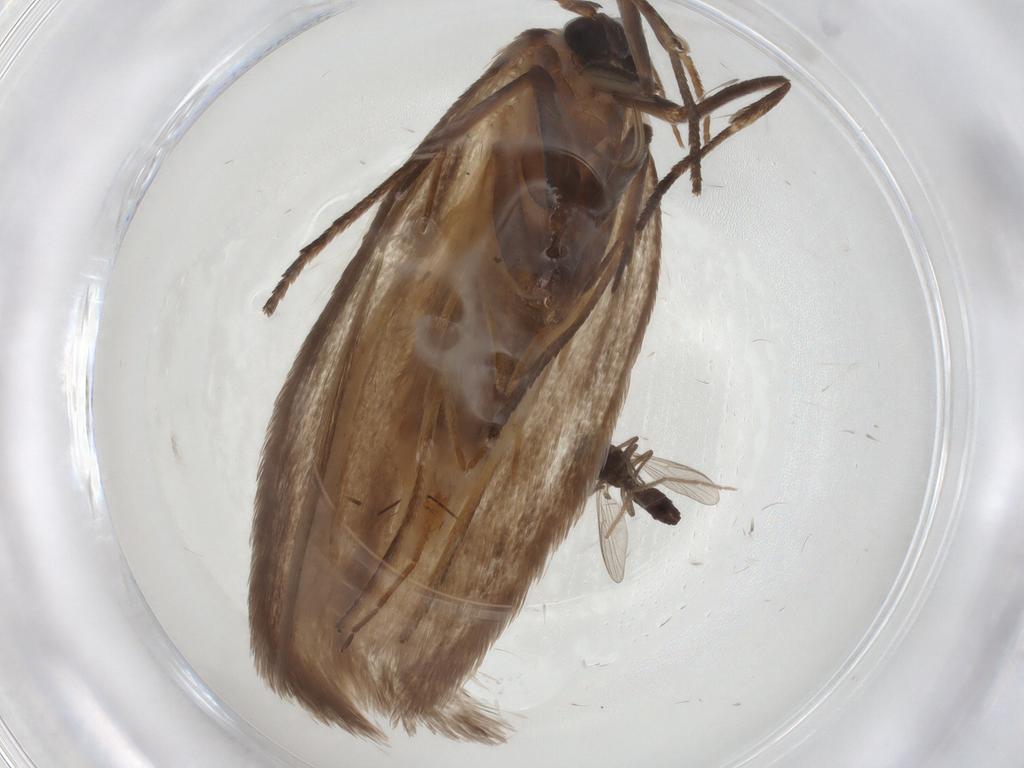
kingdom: Animalia
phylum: Arthropoda
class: Insecta
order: Lepidoptera
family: Roeslerstammiidae
